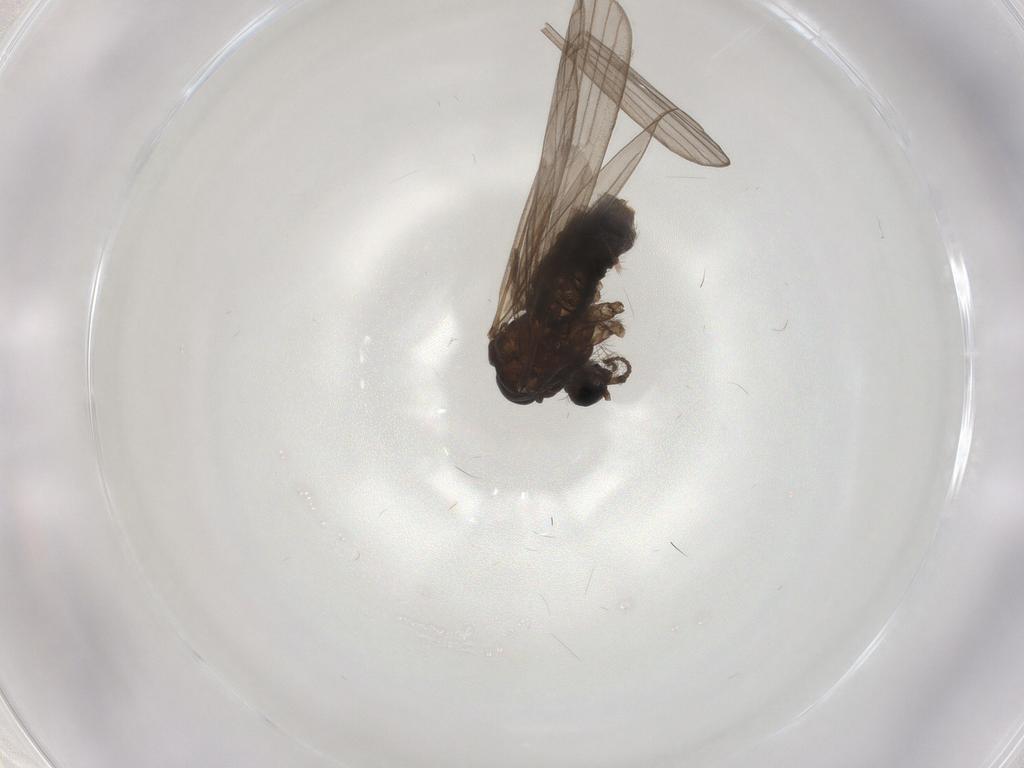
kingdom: Animalia
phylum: Arthropoda
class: Insecta
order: Diptera
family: Limoniidae
